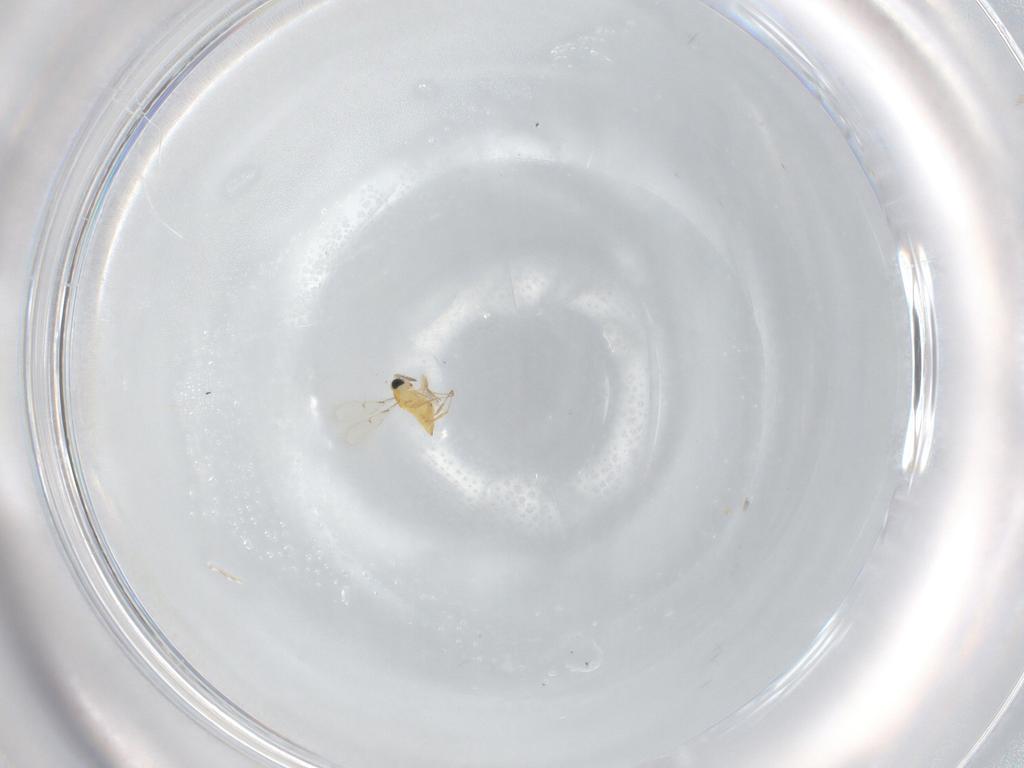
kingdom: Animalia
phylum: Arthropoda
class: Insecta
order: Hymenoptera
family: Trichogrammatidae
